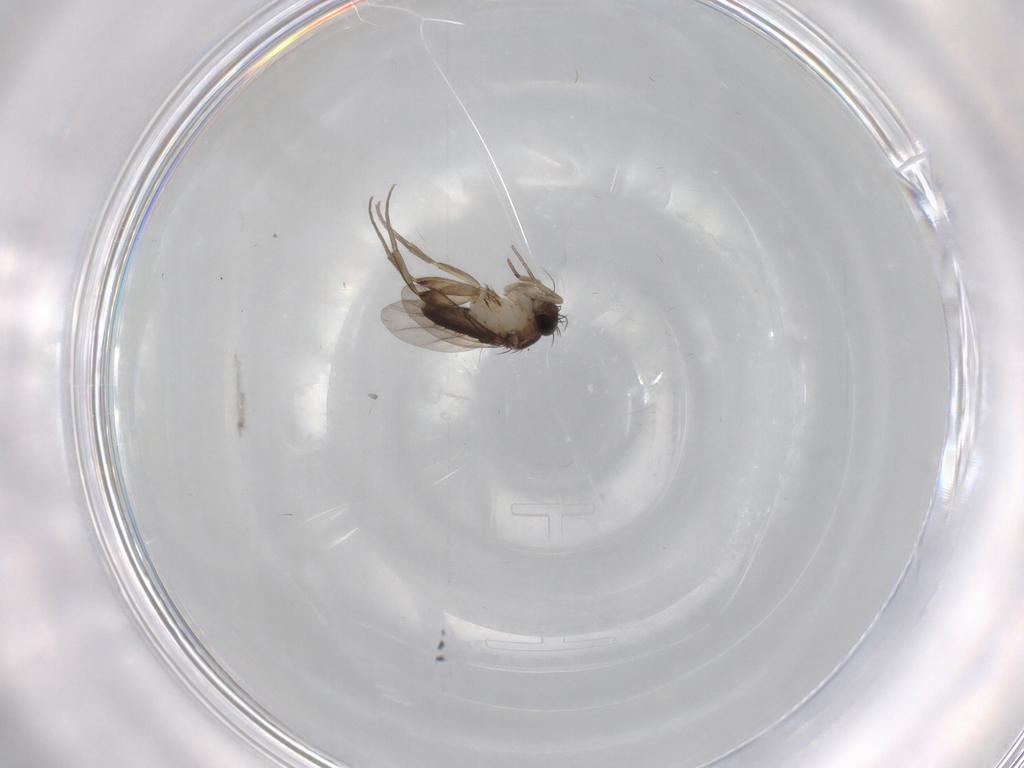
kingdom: Animalia
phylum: Arthropoda
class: Insecta
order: Diptera
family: Phoridae
